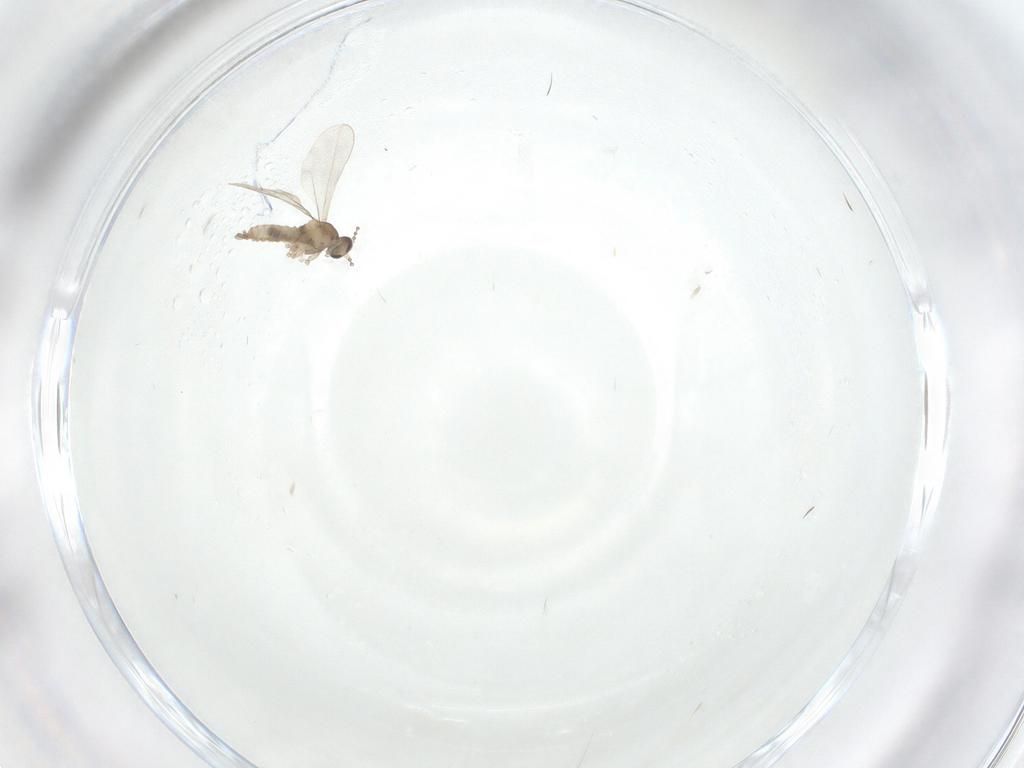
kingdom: Animalia
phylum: Arthropoda
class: Insecta
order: Diptera
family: Cecidomyiidae
